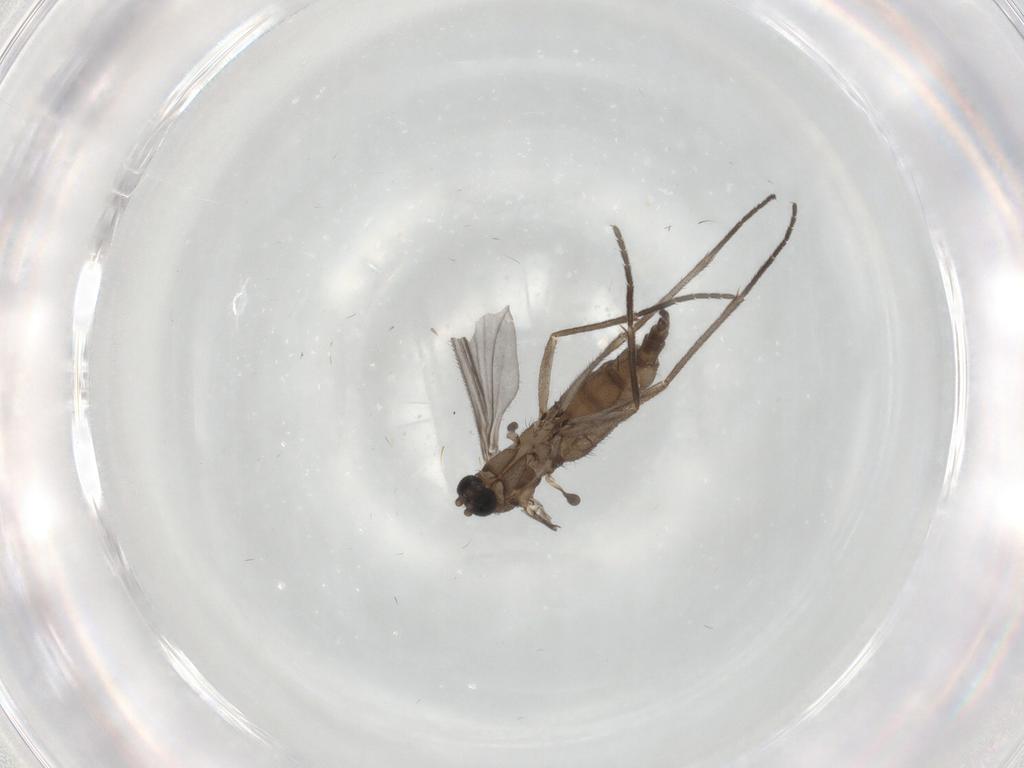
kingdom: Animalia
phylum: Arthropoda
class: Insecta
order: Diptera
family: Sciaridae
